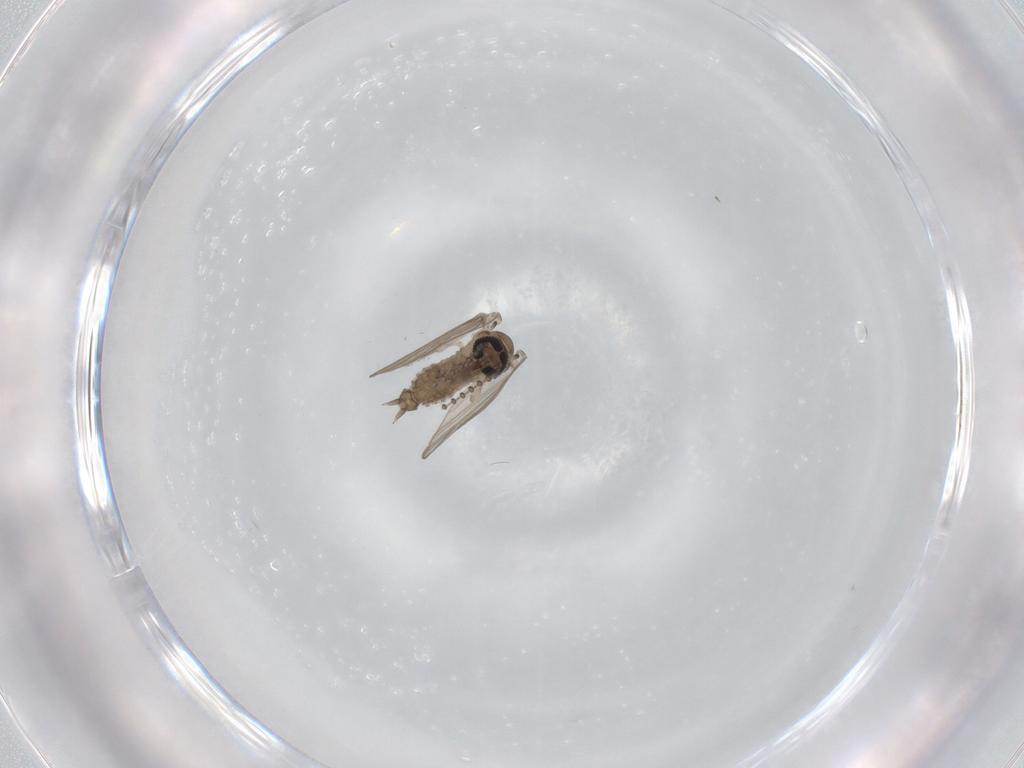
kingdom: Animalia
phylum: Arthropoda
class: Insecta
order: Diptera
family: Psychodidae
